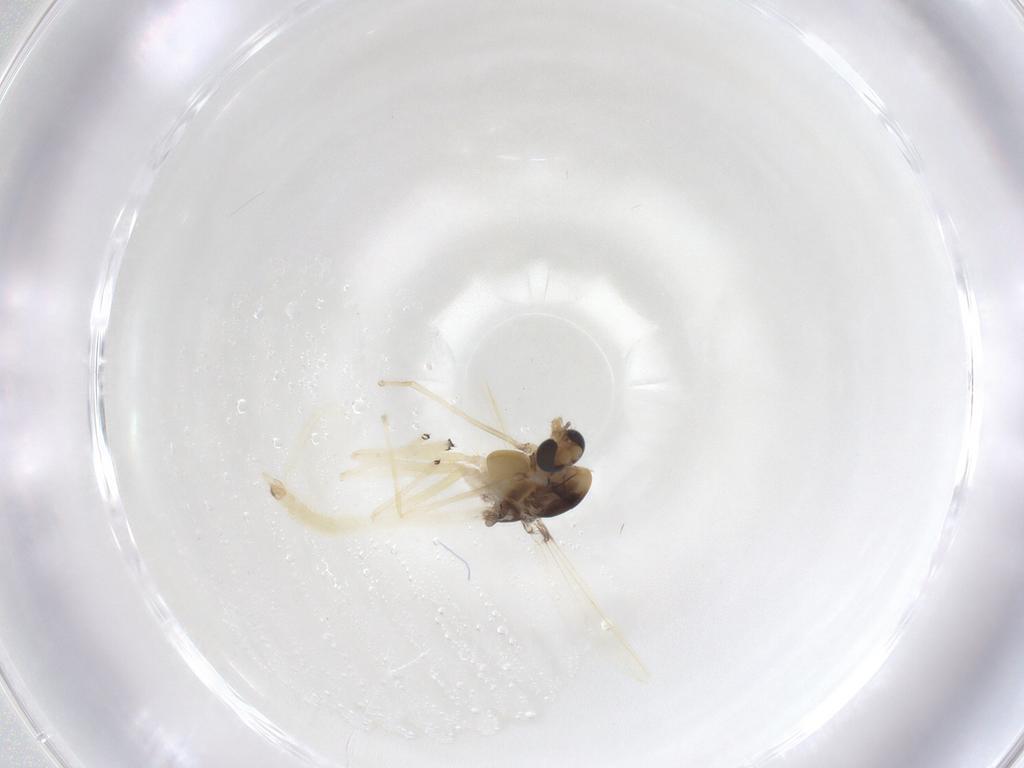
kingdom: Animalia
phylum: Arthropoda
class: Insecta
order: Diptera
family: Chironomidae
